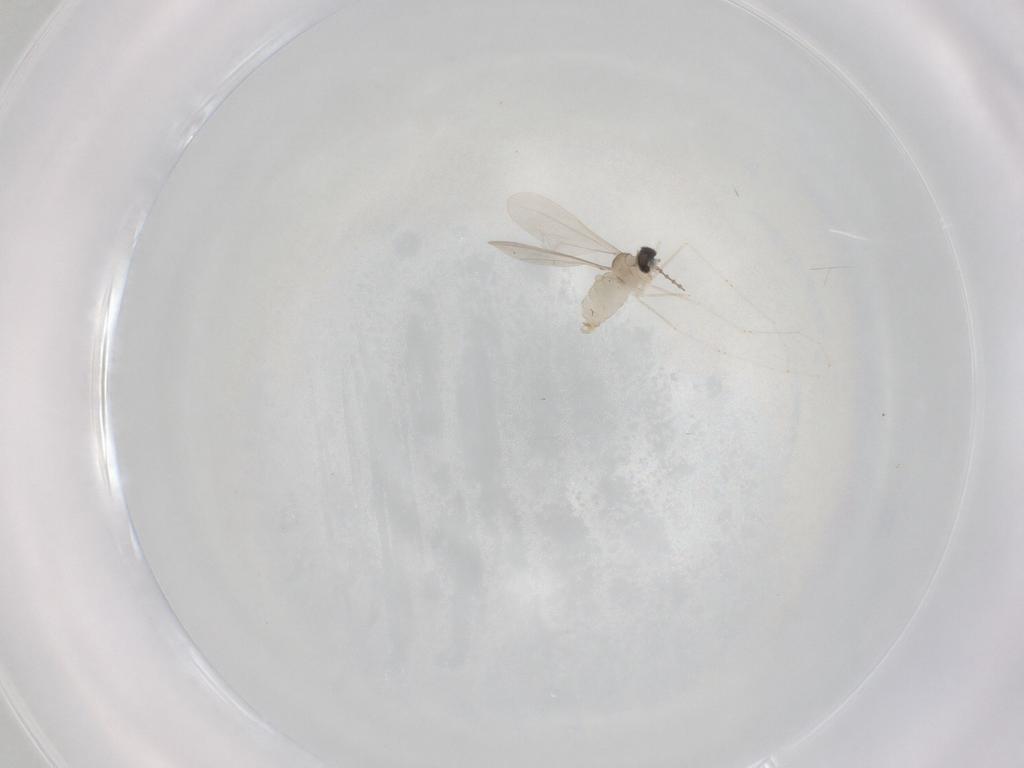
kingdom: Animalia
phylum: Arthropoda
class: Insecta
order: Diptera
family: Cecidomyiidae
